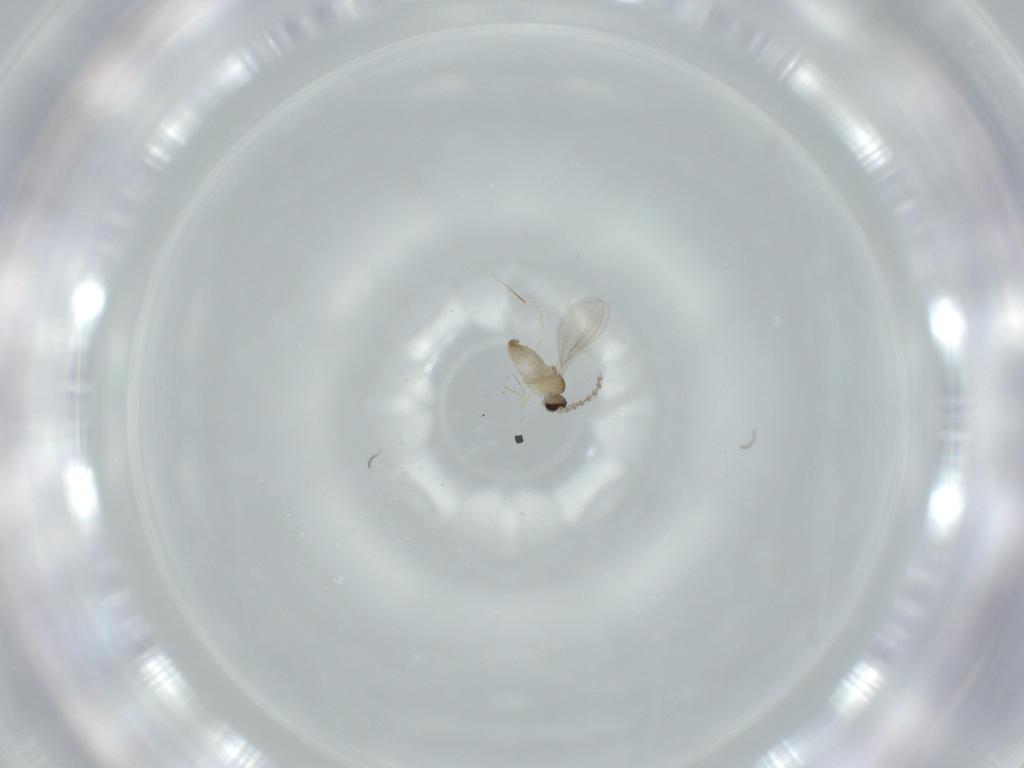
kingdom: Animalia
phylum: Arthropoda
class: Insecta
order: Diptera
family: Cecidomyiidae
